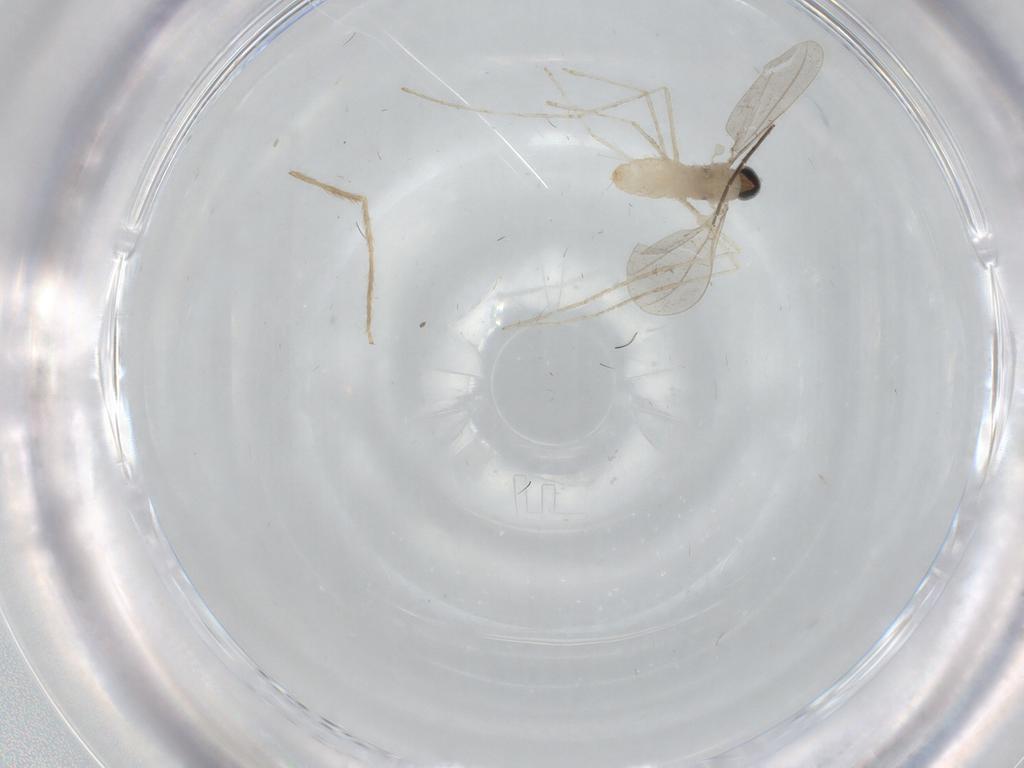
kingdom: Animalia
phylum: Arthropoda
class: Insecta
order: Diptera
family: Cecidomyiidae
